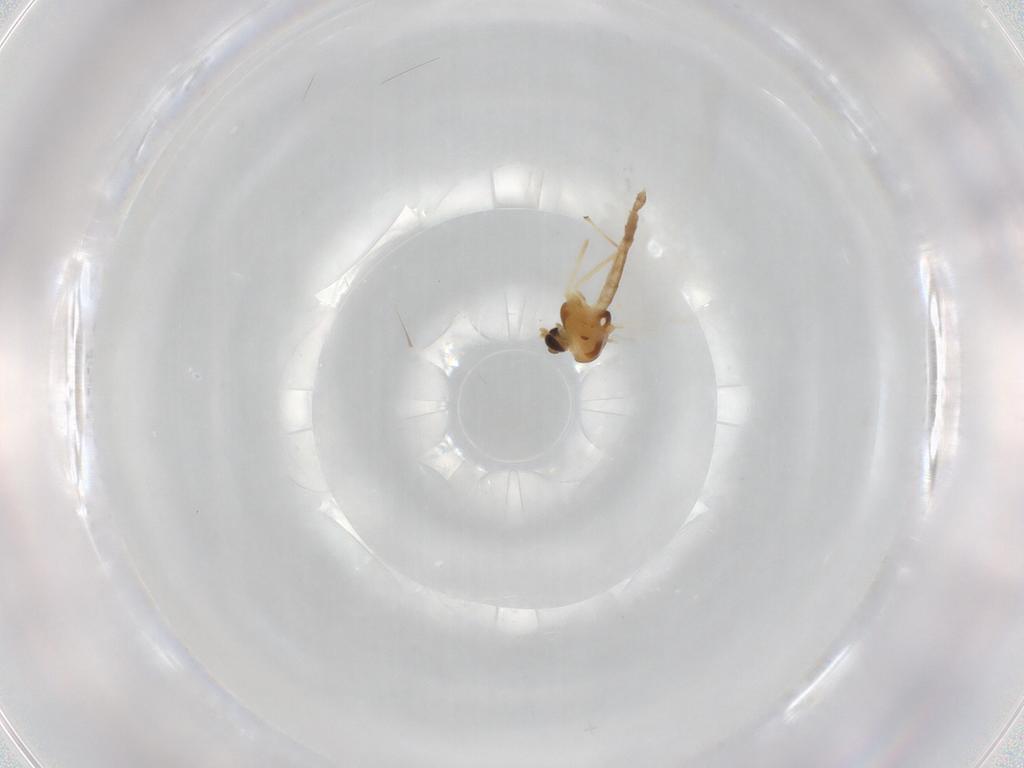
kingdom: Animalia
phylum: Arthropoda
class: Insecta
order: Diptera
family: Chironomidae
